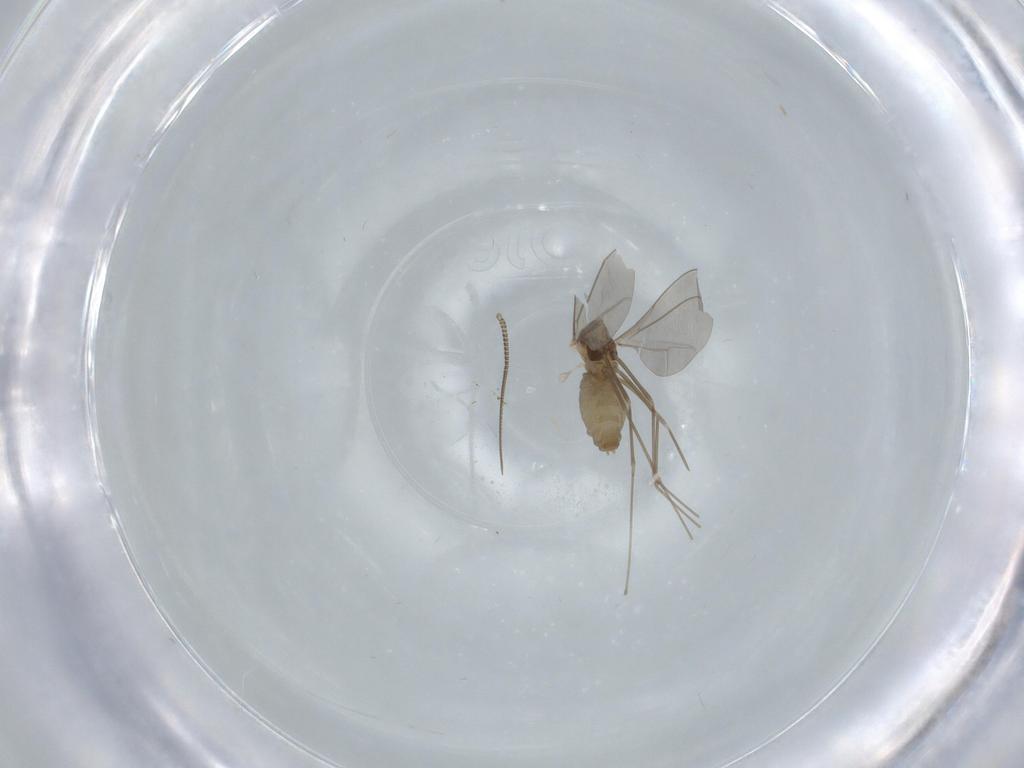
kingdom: Animalia
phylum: Arthropoda
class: Insecta
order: Diptera
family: Cecidomyiidae
